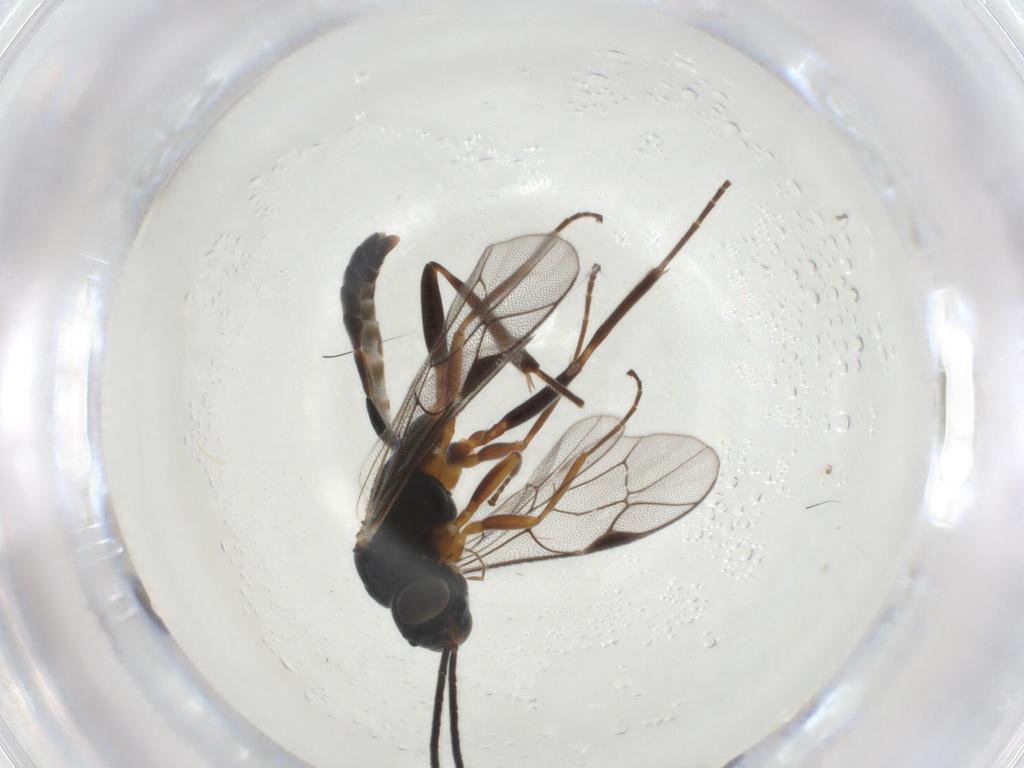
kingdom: Animalia
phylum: Arthropoda
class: Insecta
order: Hymenoptera
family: Ichneumonidae
